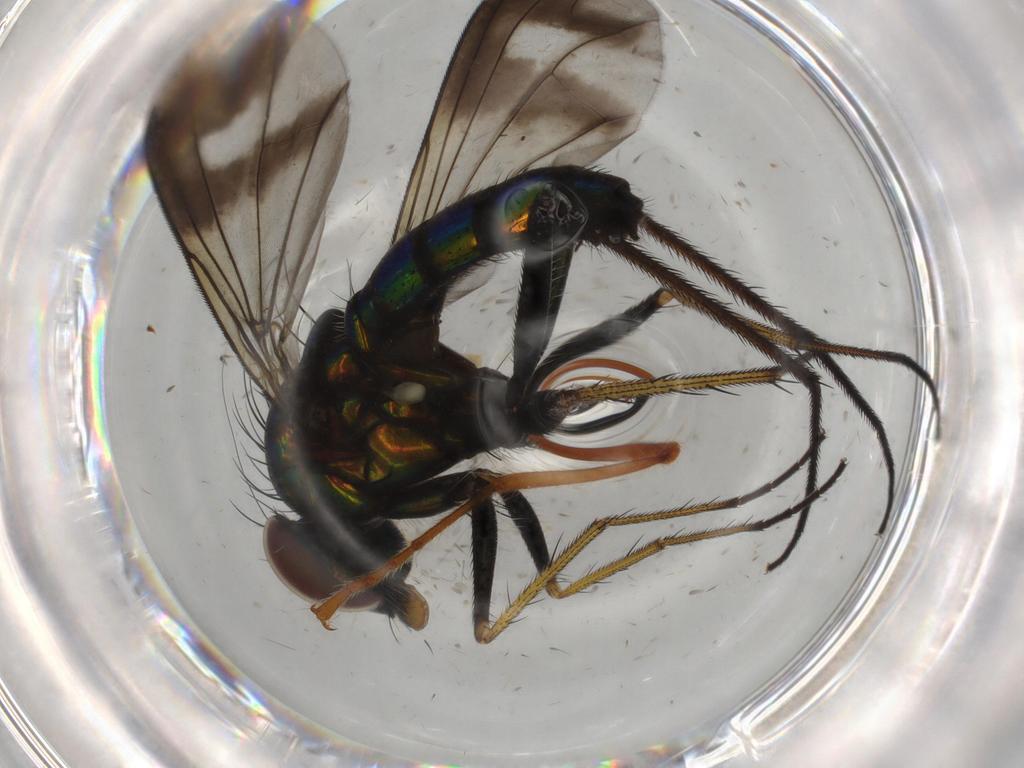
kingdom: Animalia
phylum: Arthropoda
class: Insecta
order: Diptera
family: Dolichopodidae
